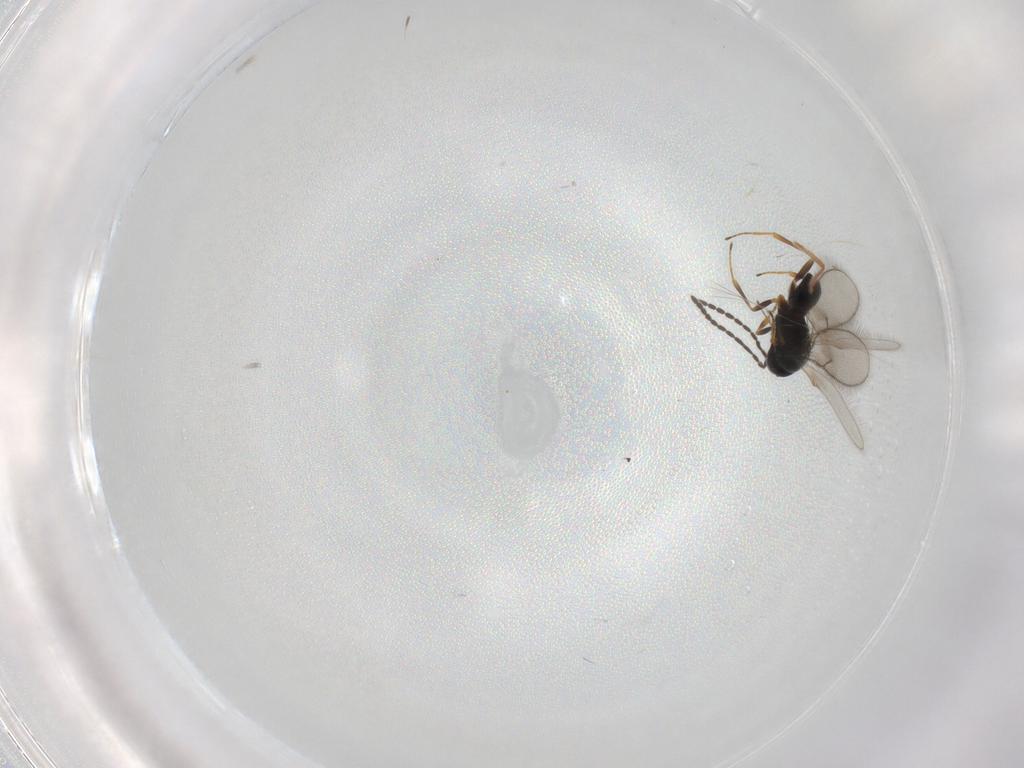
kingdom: Animalia
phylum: Arthropoda
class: Insecta
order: Hymenoptera
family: Scelionidae
